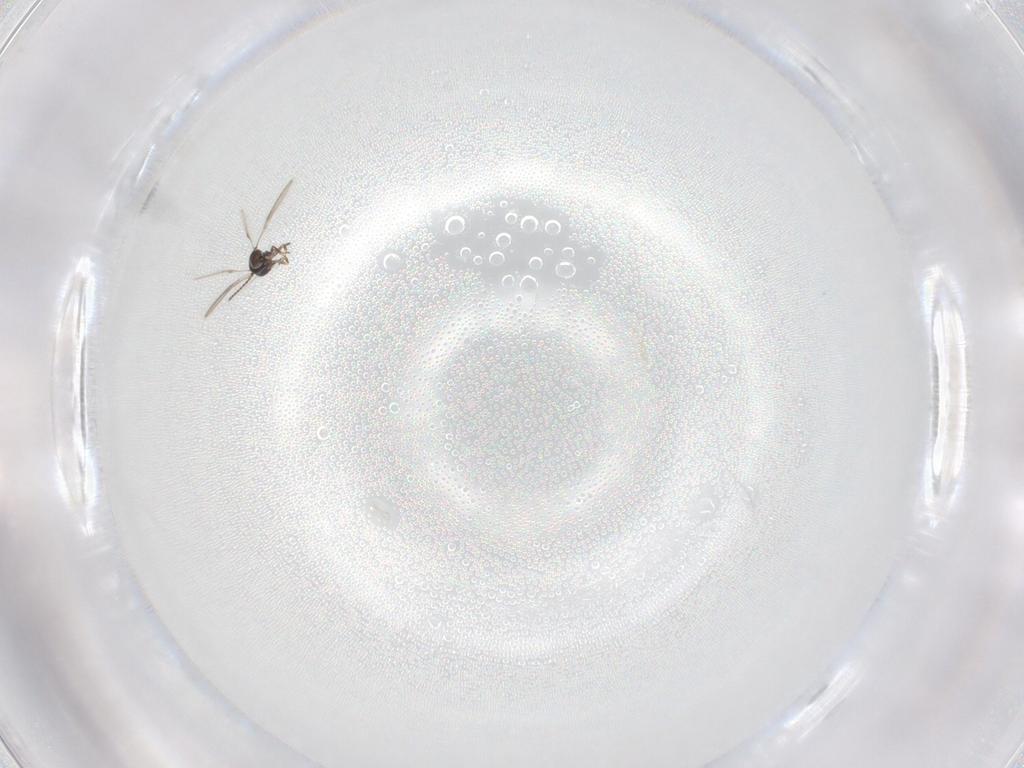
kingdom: Animalia
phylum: Arthropoda
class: Insecta
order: Hymenoptera
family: Scelionidae
